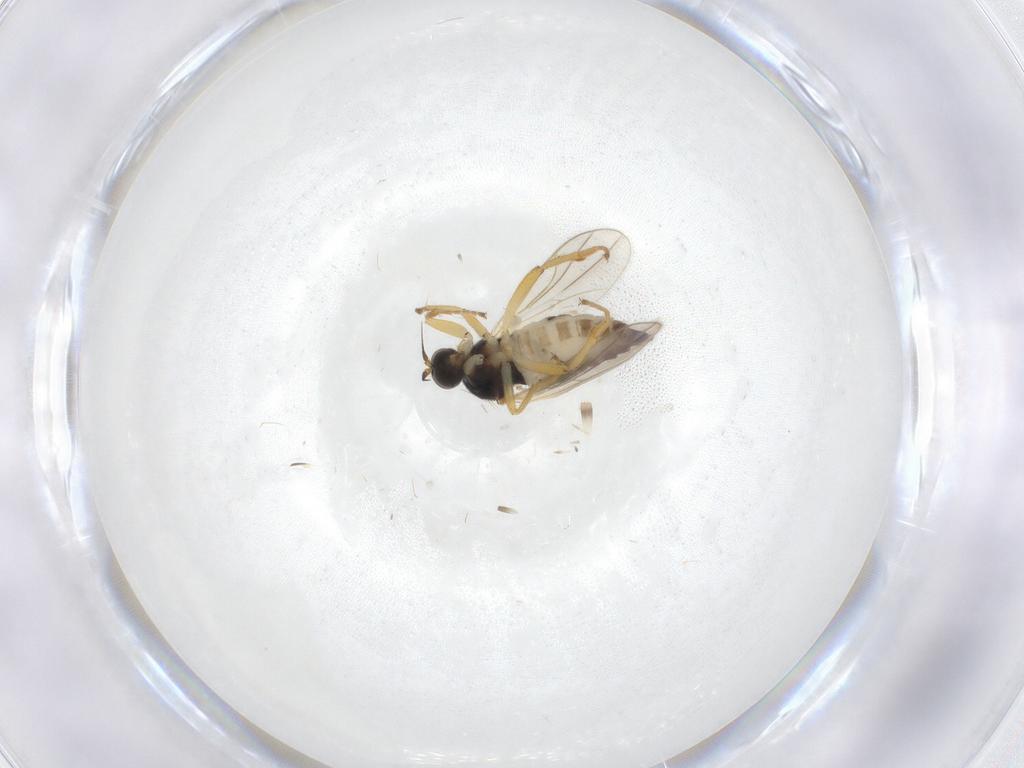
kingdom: Animalia
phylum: Arthropoda
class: Insecta
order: Diptera
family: Hybotidae
